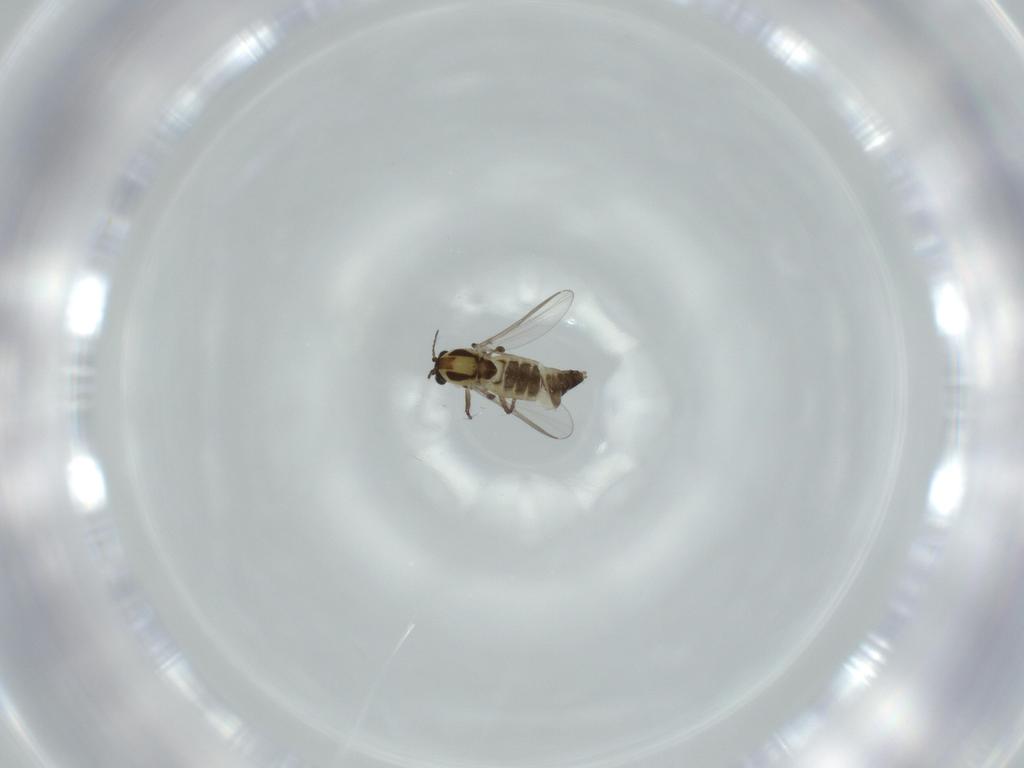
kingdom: Animalia
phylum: Arthropoda
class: Insecta
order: Diptera
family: Chironomidae
